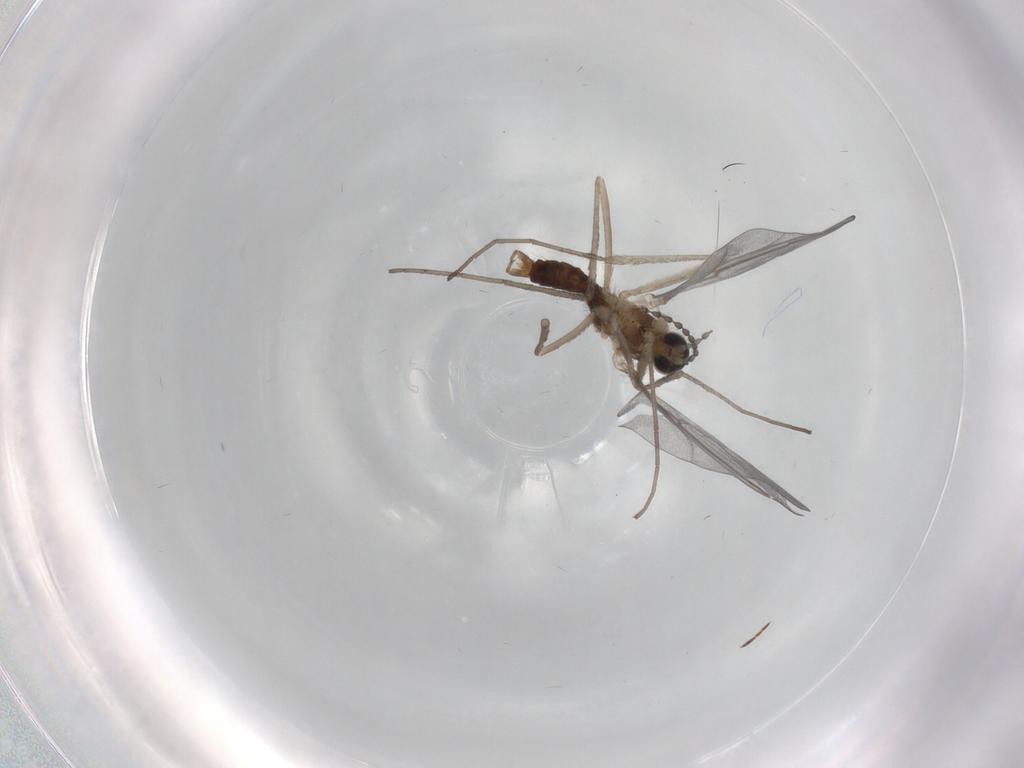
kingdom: Animalia
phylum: Arthropoda
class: Insecta
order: Diptera
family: Cecidomyiidae
